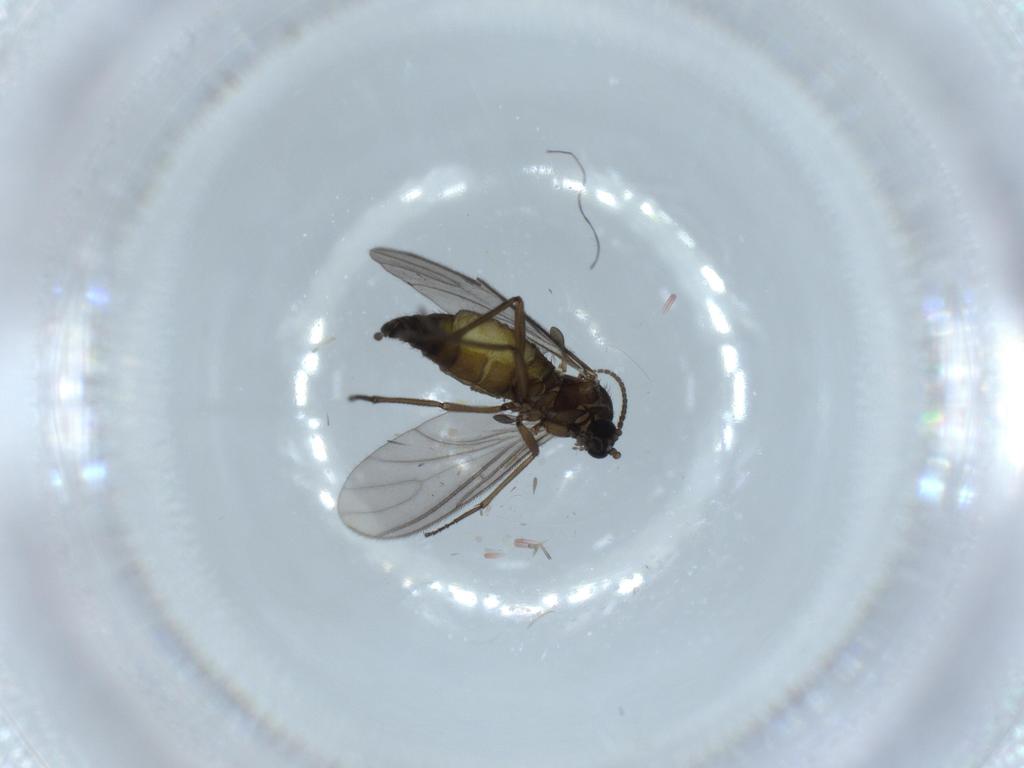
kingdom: Animalia
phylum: Arthropoda
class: Insecta
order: Diptera
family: Sciaridae
